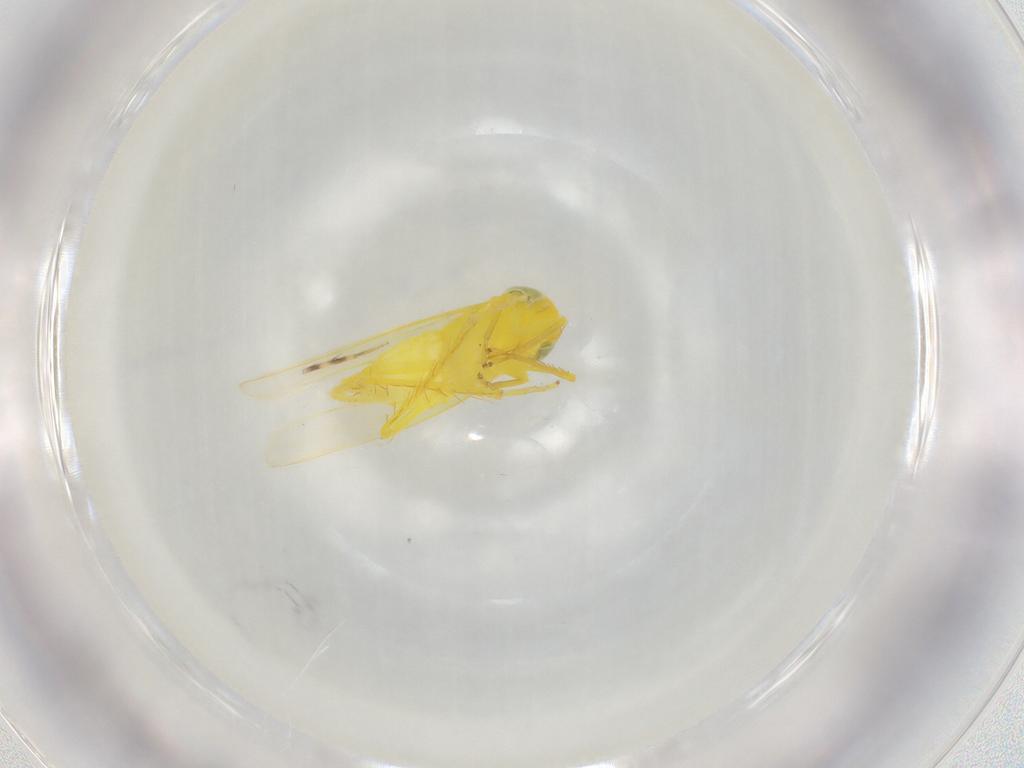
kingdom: Animalia
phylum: Arthropoda
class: Insecta
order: Hemiptera
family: Cicadellidae
